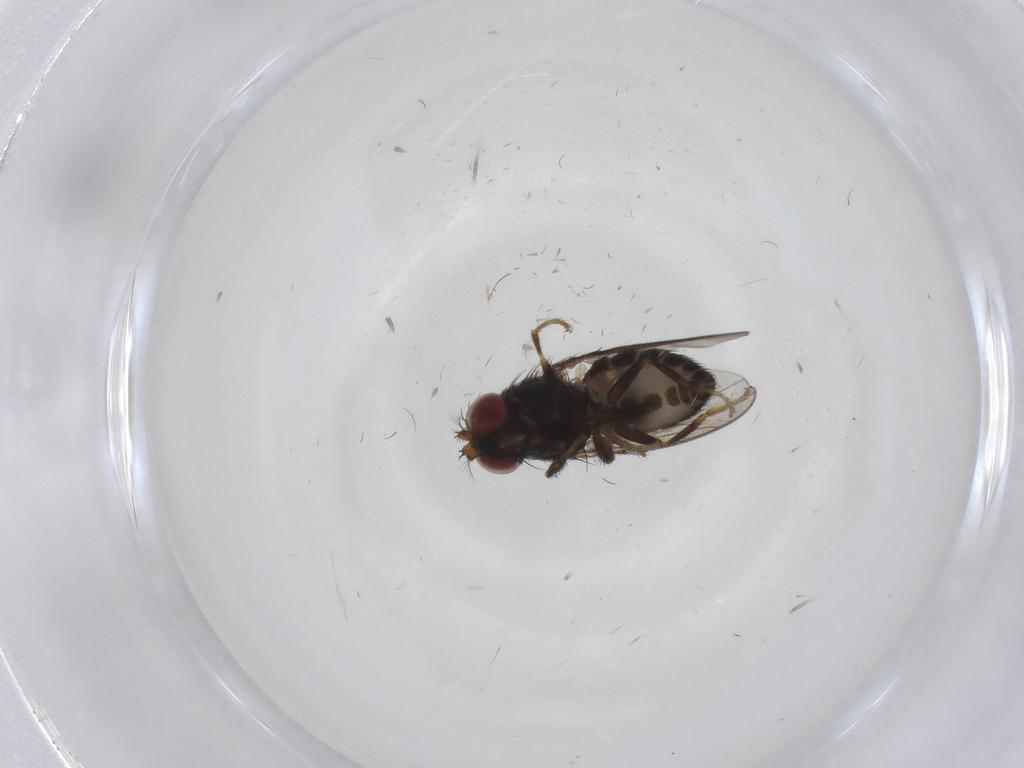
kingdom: Animalia
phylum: Arthropoda
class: Insecta
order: Diptera
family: Ephydridae
